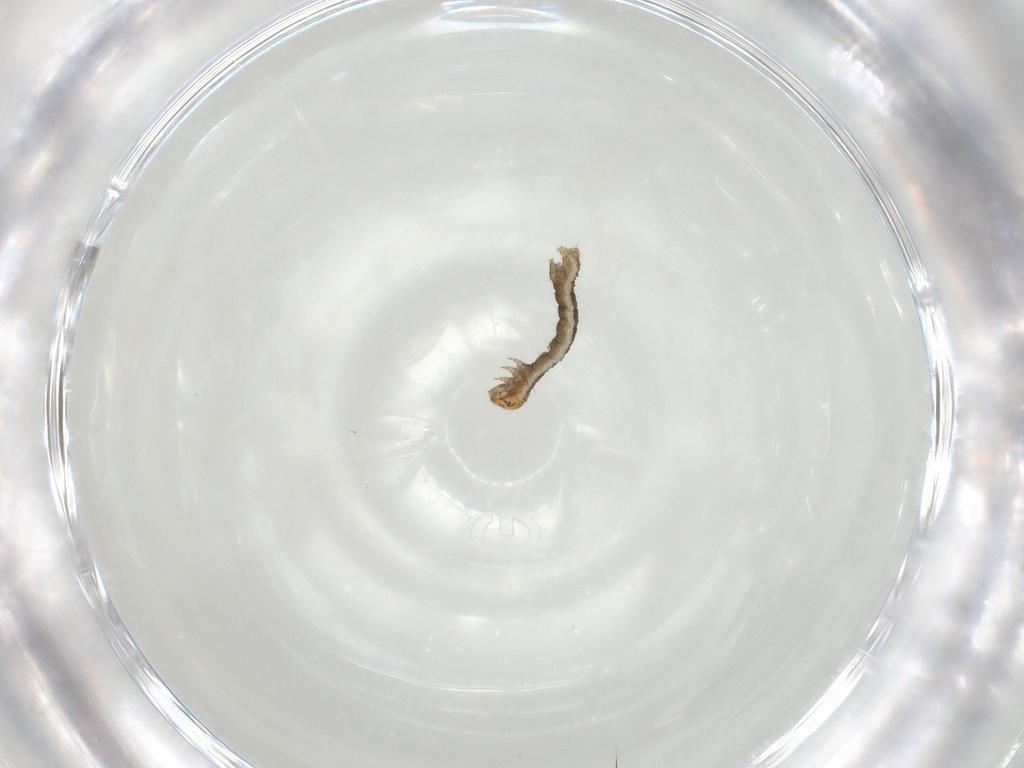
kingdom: Animalia
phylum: Arthropoda
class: Insecta
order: Lepidoptera
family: Geometridae
